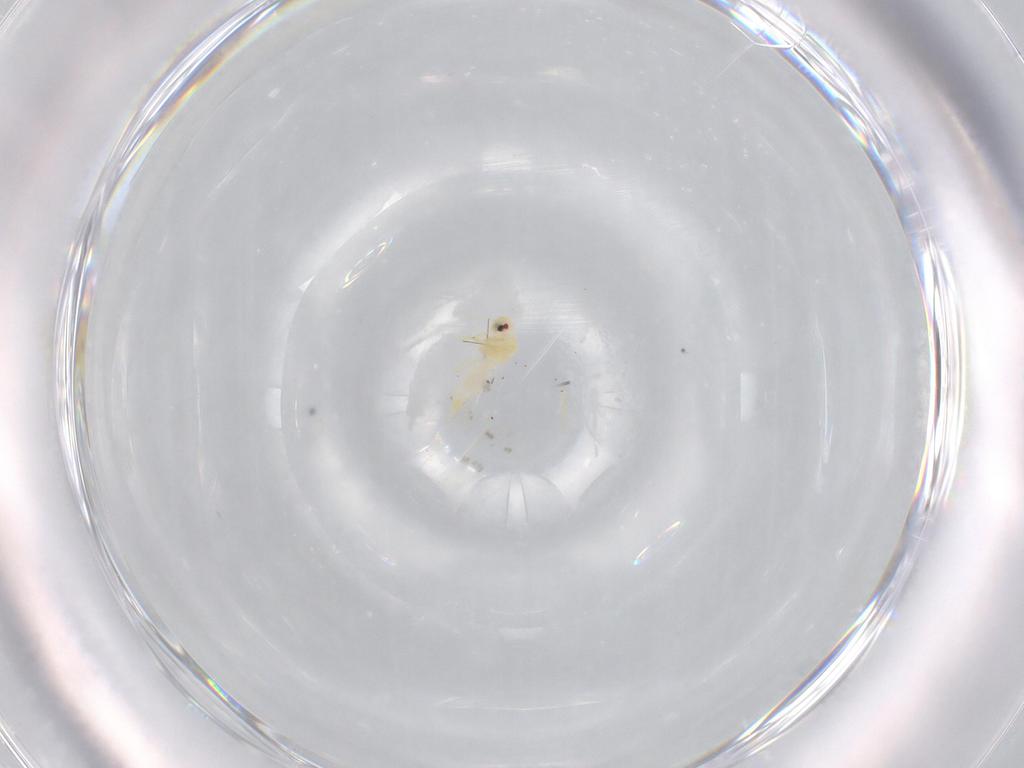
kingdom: Animalia
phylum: Arthropoda
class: Insecta
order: Hemiptera
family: Aleyrodidae
